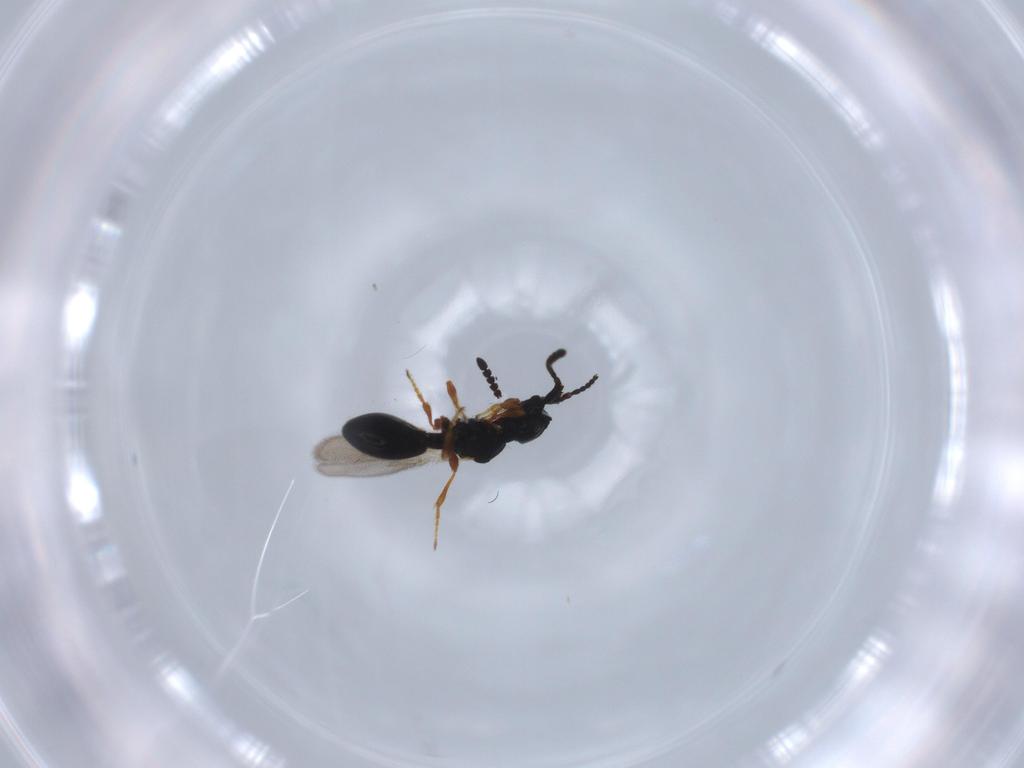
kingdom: Animalia
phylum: Arthropoda
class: Insecta
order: Hymenoptera
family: Diapriidae
